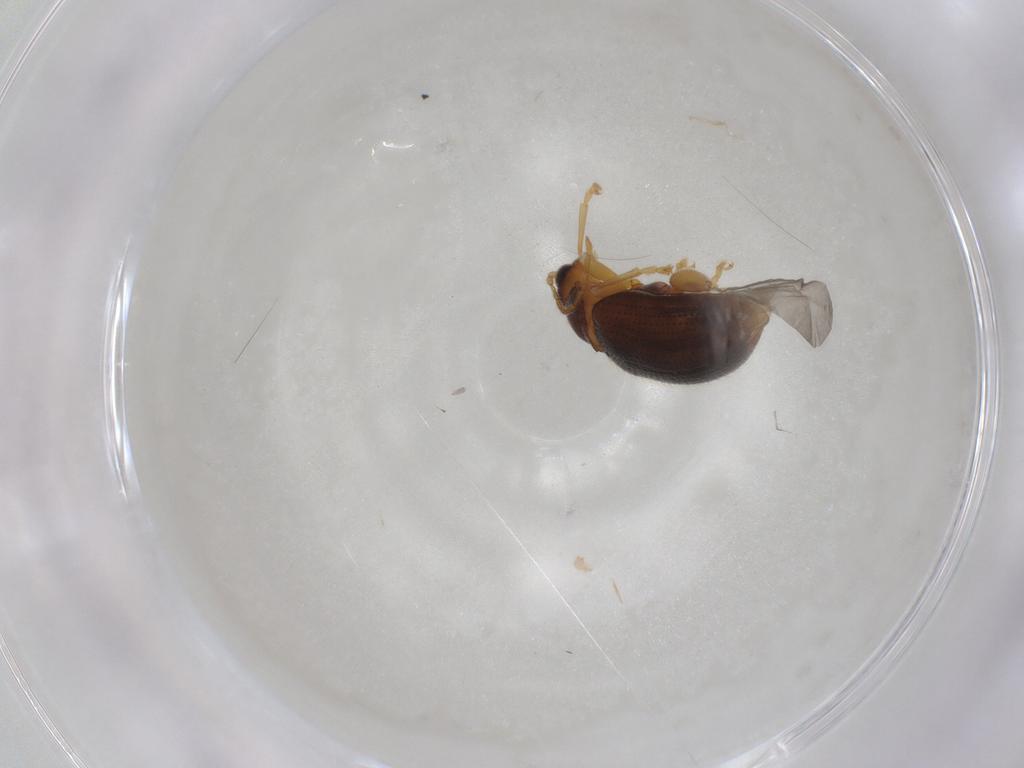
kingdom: Animalia
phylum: Arthropoda
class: Insecta
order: Coleoptera
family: Chrysomelidae
